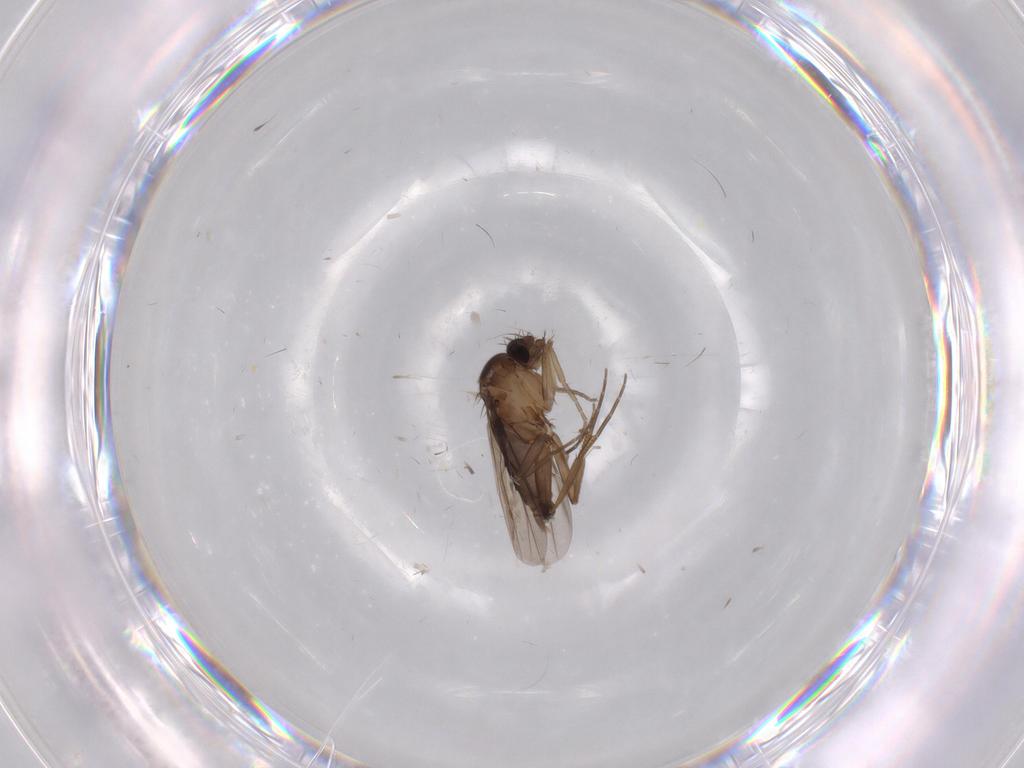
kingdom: Animalia
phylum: Arthropoda
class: Insecta
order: Diptera
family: Phoridae
